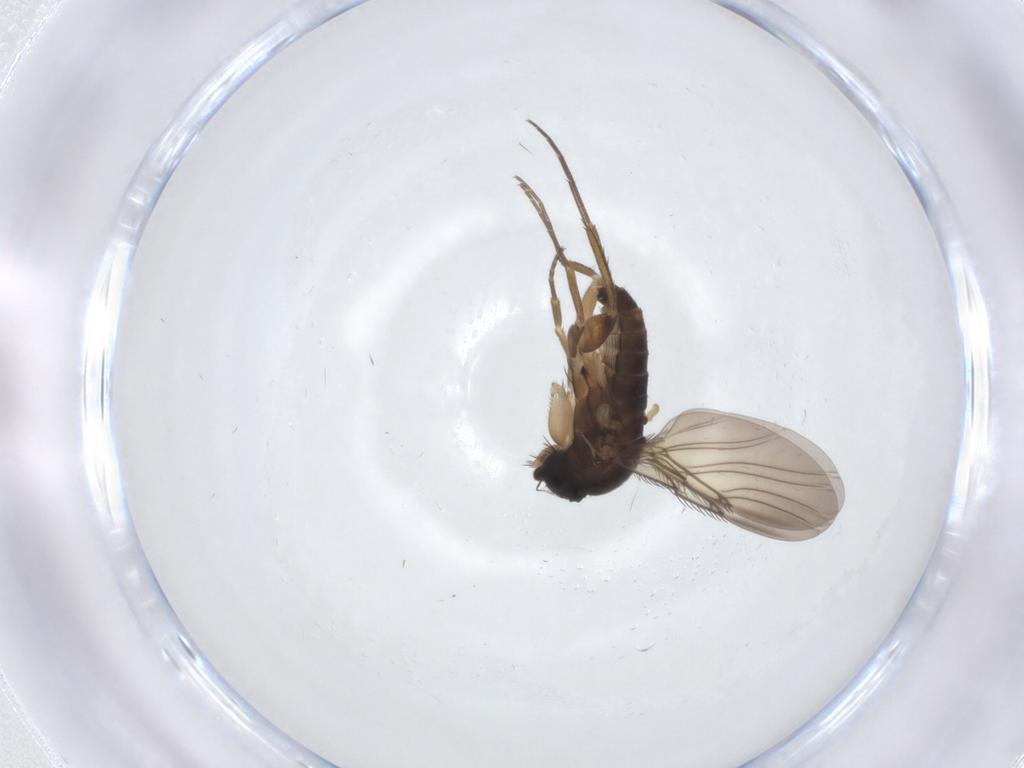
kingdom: Animalia
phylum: Arthropoda
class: Insecta
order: Diptera
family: Phoridae
